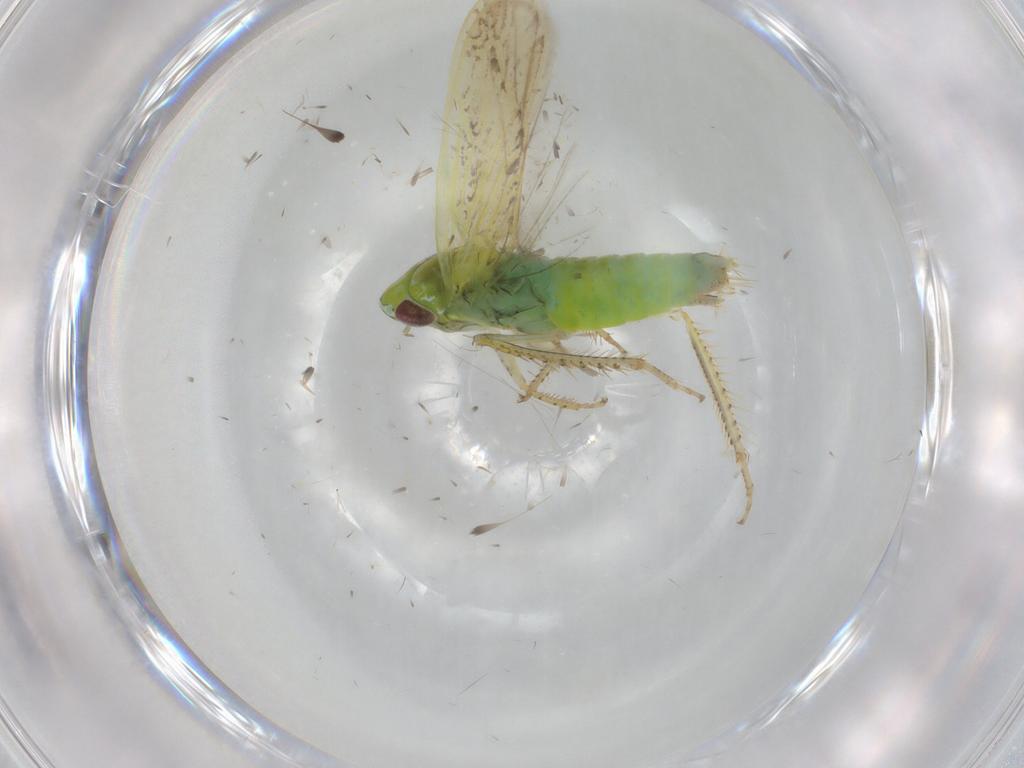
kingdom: Animalia
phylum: Arthropoda
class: Insecta
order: Hemiptera
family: Cicadellidae
